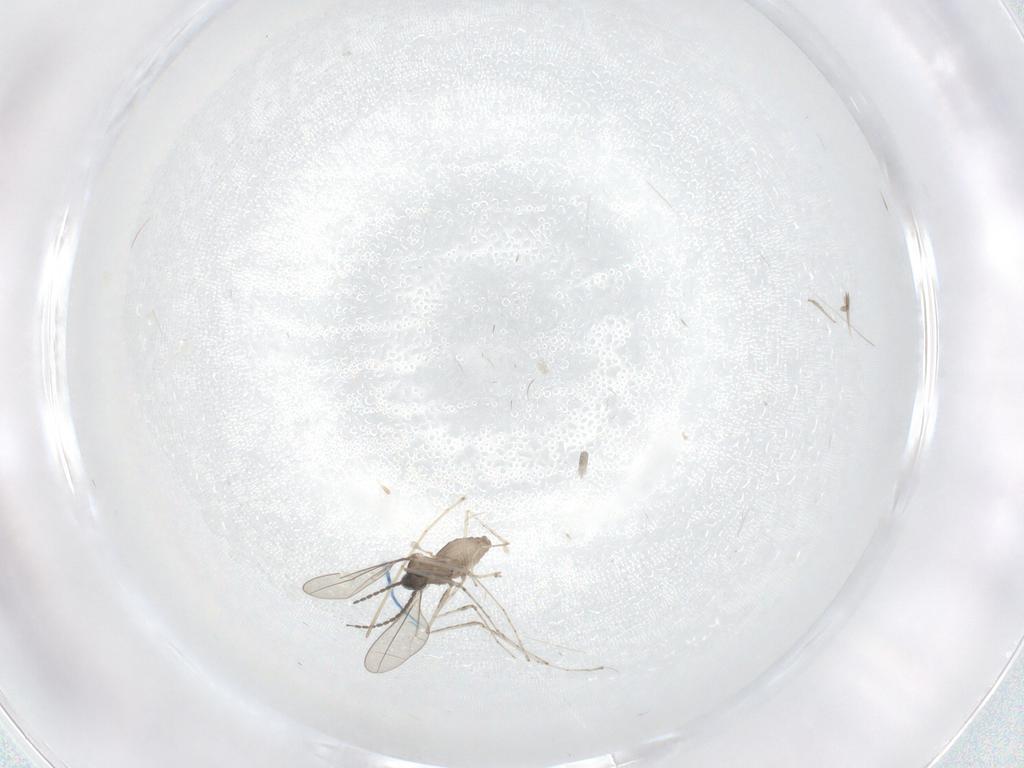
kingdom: Animalia
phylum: Arthropoda
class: Insecta
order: Diptera
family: Cecidomyiidae
